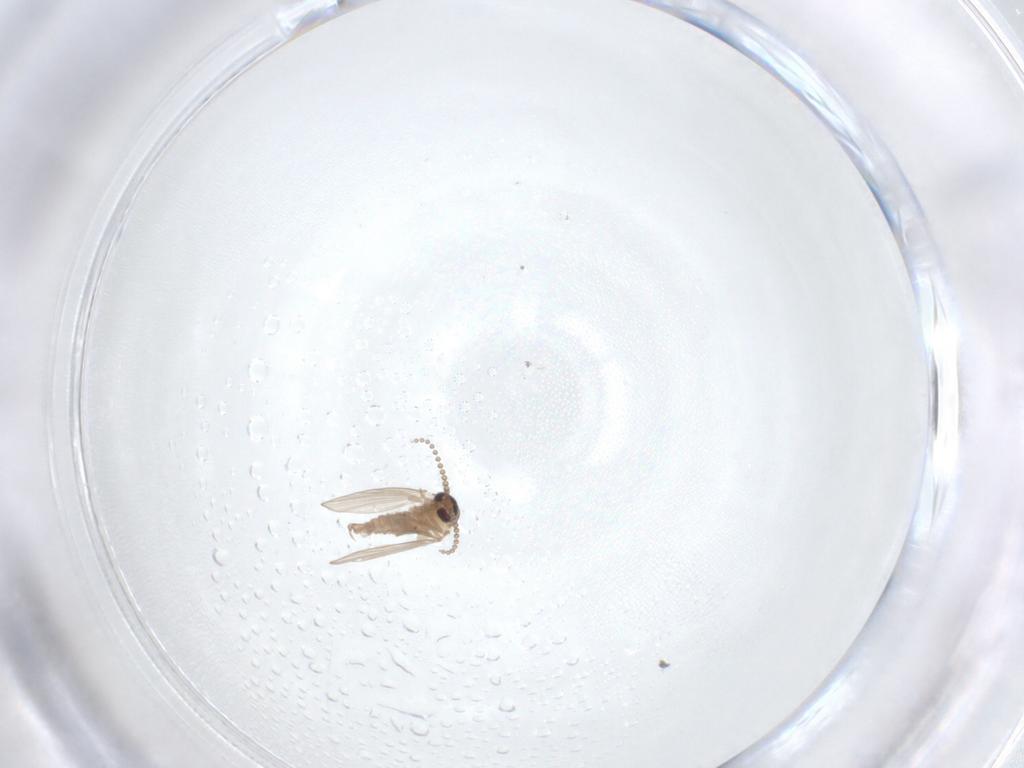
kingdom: Animalia
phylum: Arthropoda
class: Insecta
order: Diptera
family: Psychodidae
